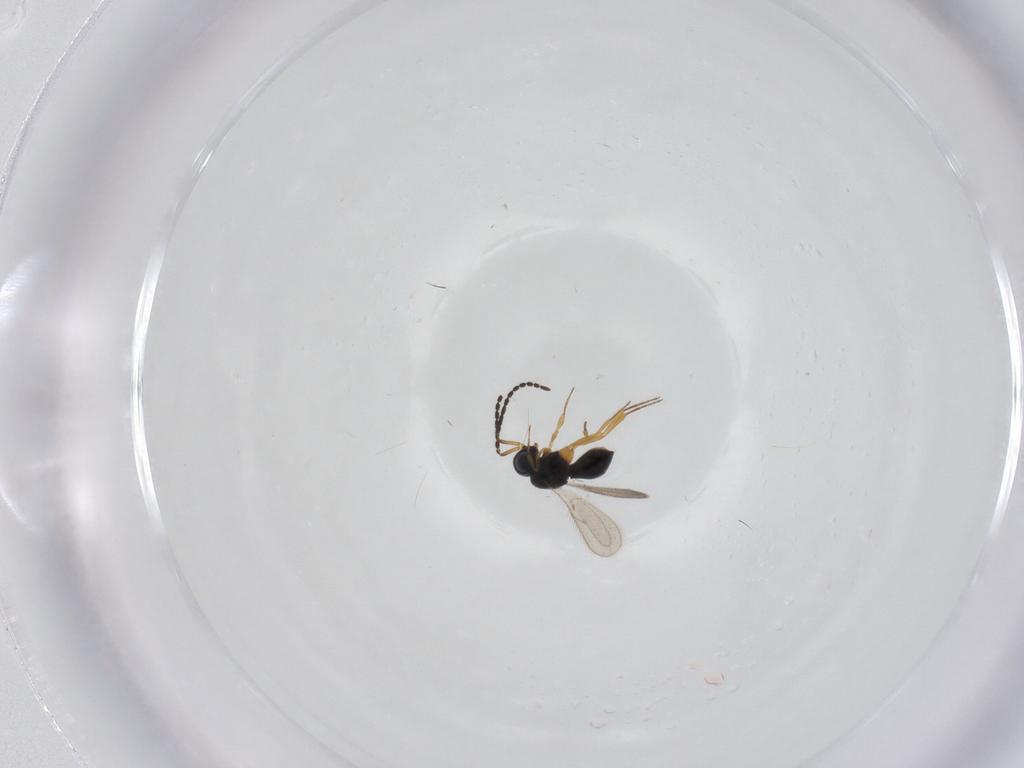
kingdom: Animalia
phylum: Arthropoda
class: Insecta
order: Hymenoptera
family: Scelionidae
